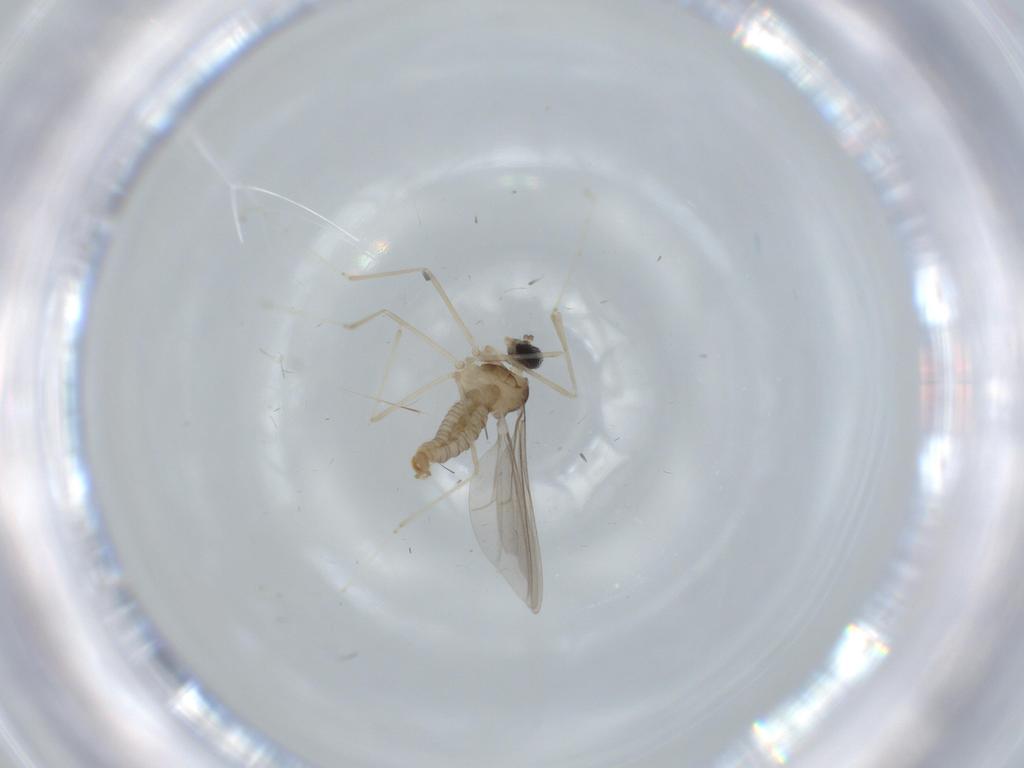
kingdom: Animalia
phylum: Arthropoda
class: Insecta
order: Diptera
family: Cecidomyiidae
